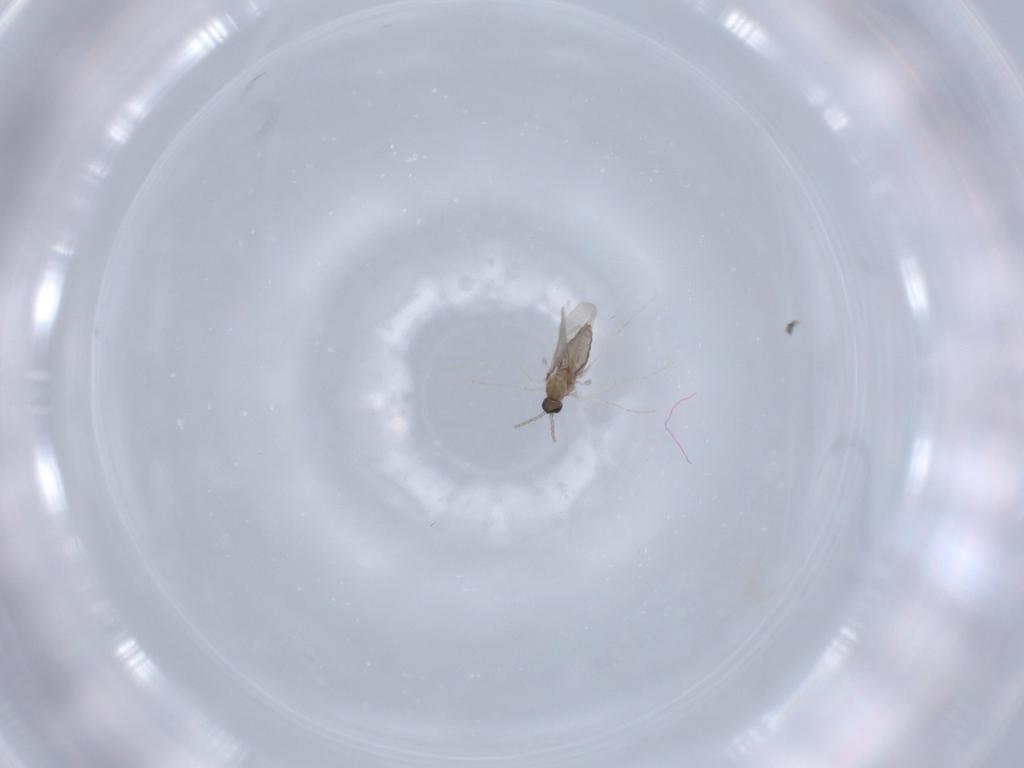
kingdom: Animalia
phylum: Arthropoda
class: Insecta
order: Diptera
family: Cecidomyiidae
